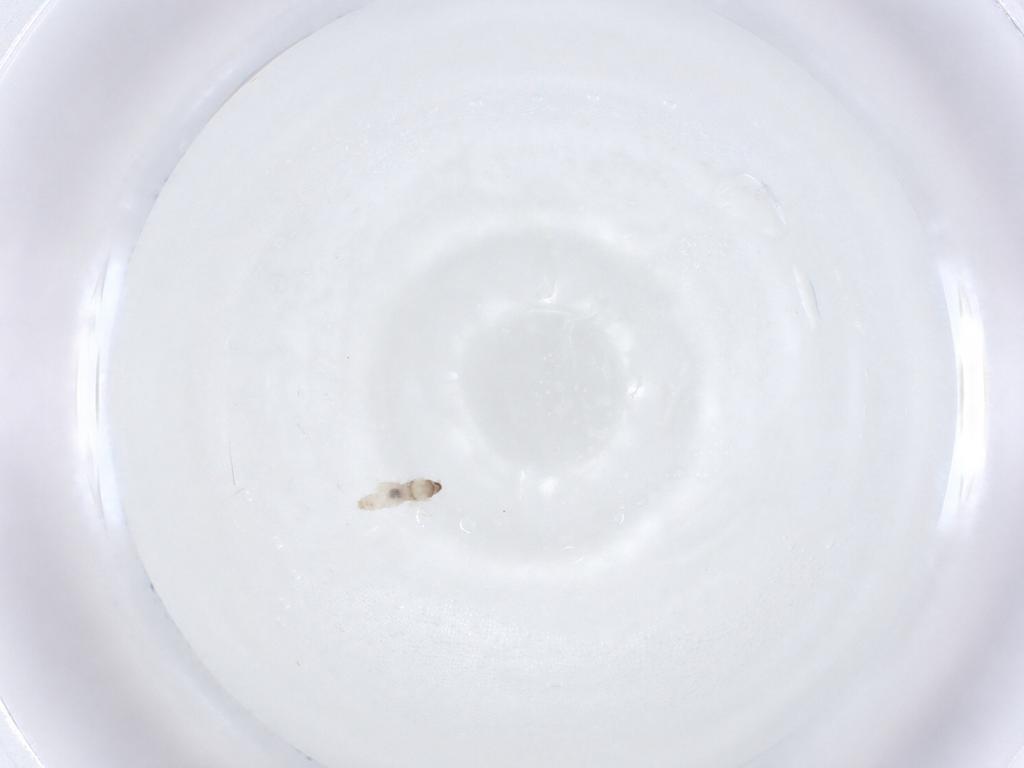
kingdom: Animalia
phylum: Arthropoda
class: Insecta
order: Diptera
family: Cecidomyiidae
